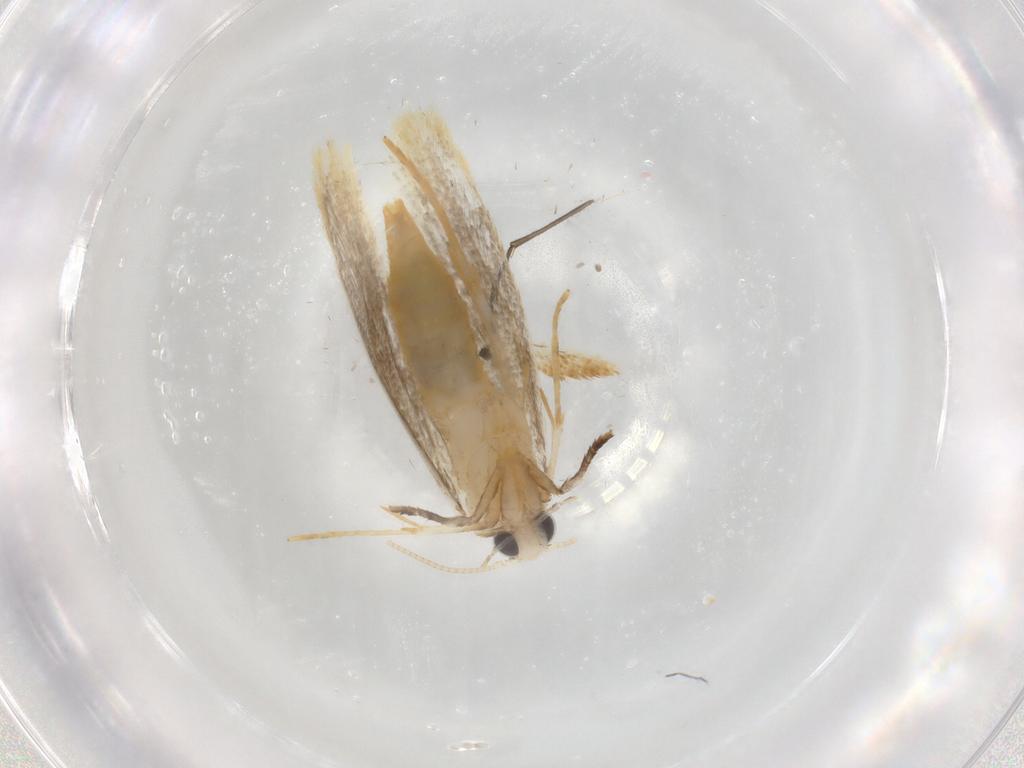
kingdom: Animalia
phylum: Arthropoda
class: Insecta
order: Lepidoptera
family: Tineidae
